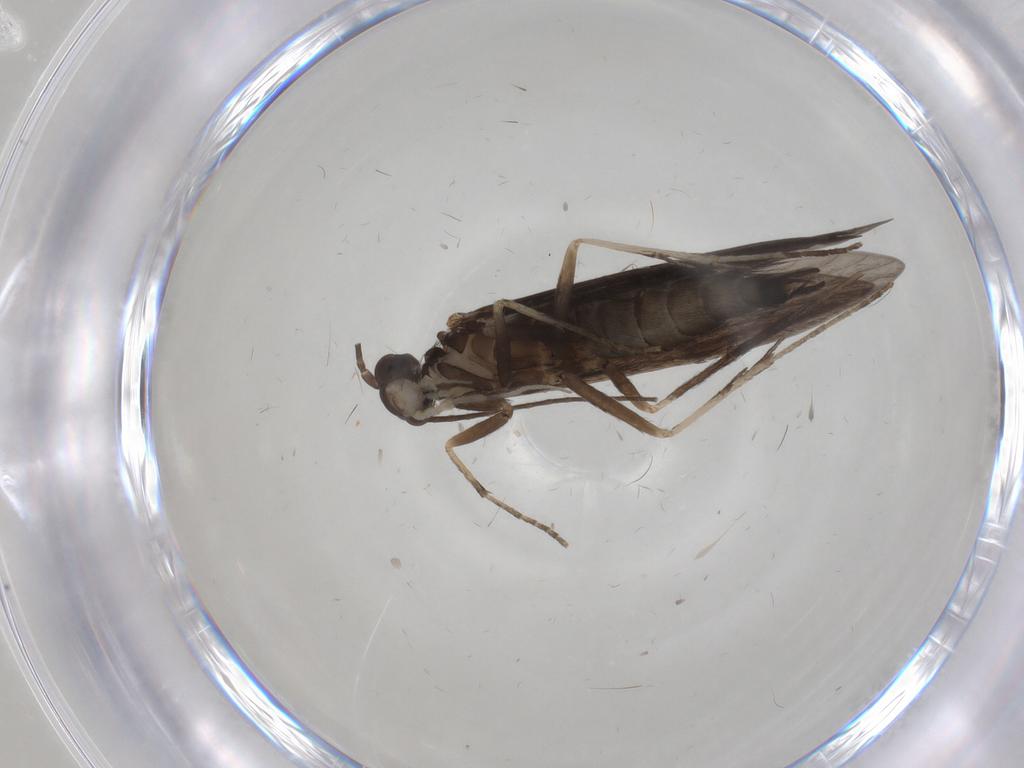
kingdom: Animalia
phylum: Arthropoda
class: Insecta
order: Trichoptera
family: Xiphocentronidae
